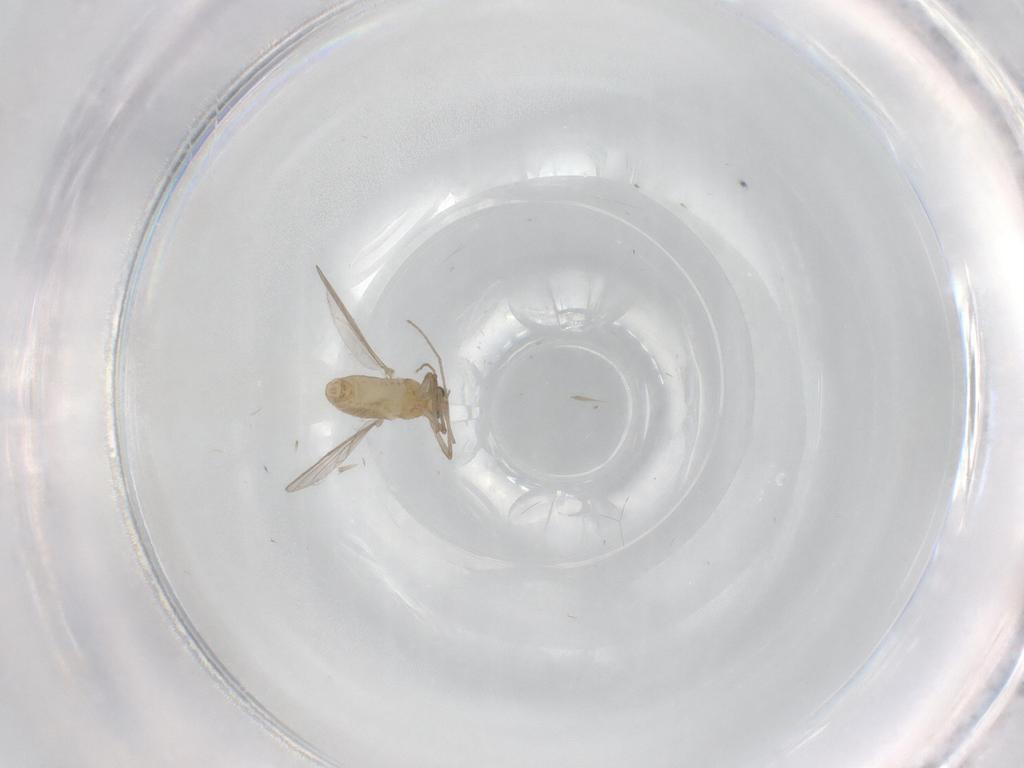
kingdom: Animalia
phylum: Arthropoda
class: Insecta
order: Diptera
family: Chironomidae
